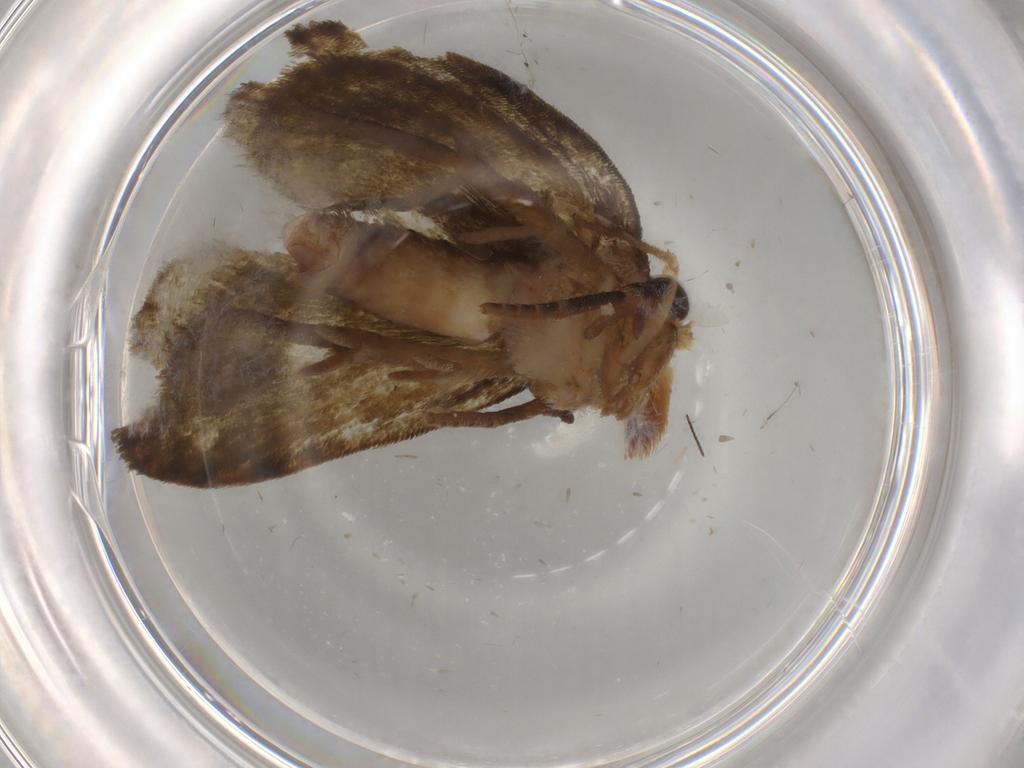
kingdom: Animalia
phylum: Arthropoda
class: Insecta
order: Lepidoptera
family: Geometridae
